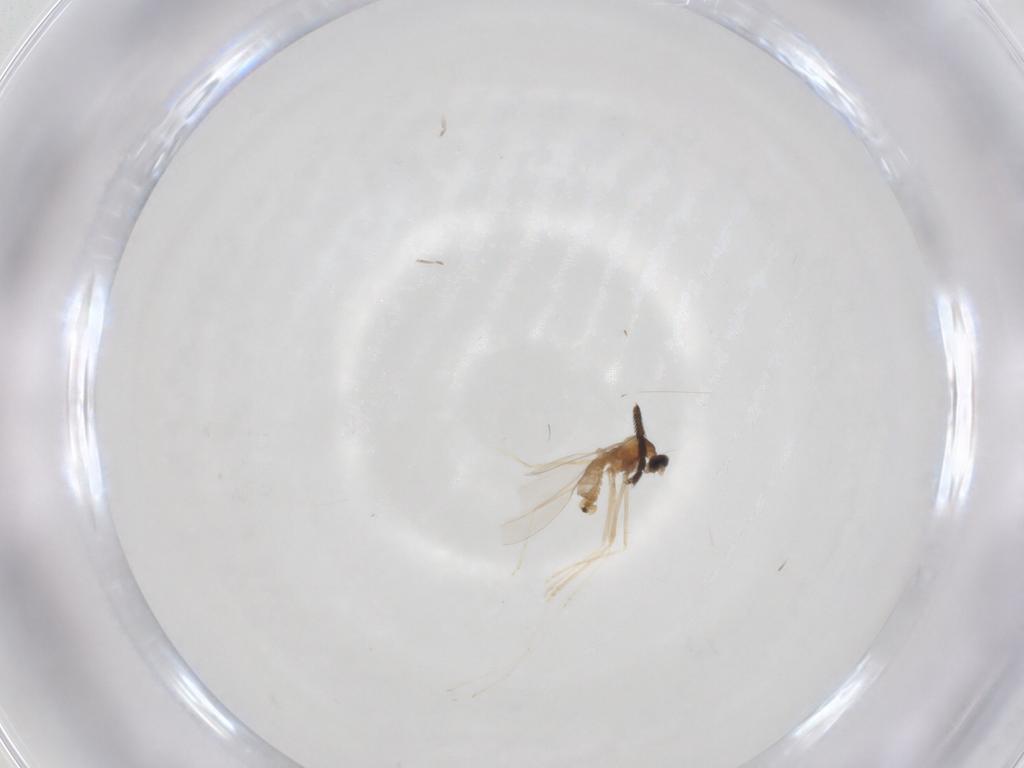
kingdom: Animalia
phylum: Arthropoda
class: Insecta
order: Diptera
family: Cecidomyiidae
